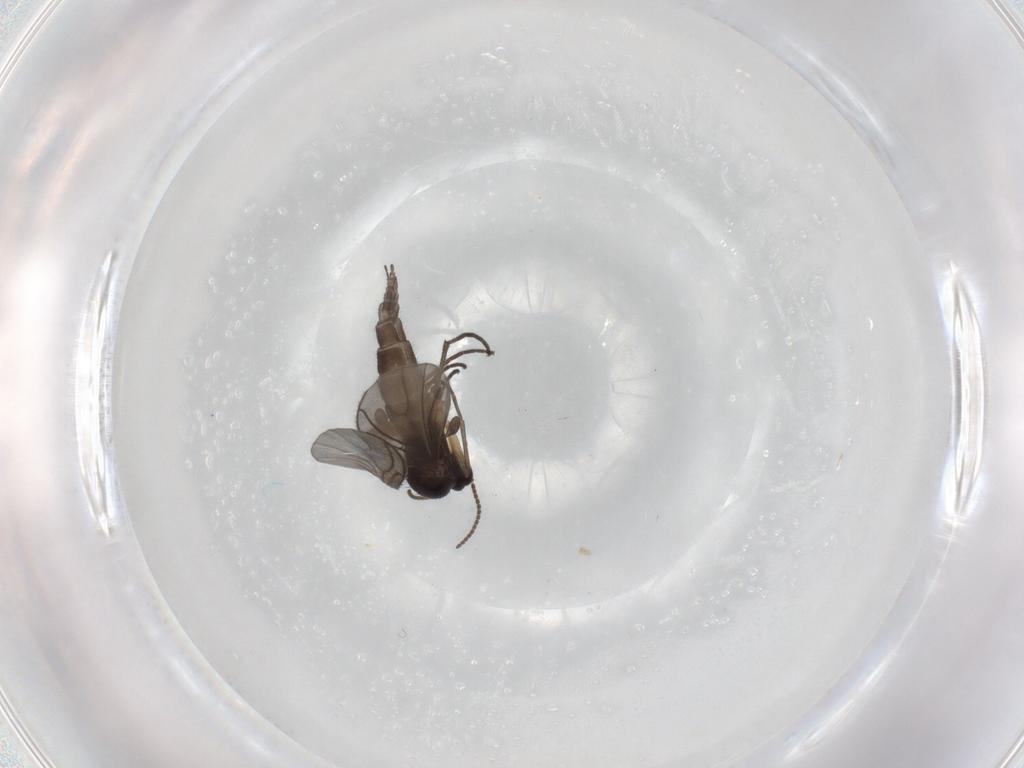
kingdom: Animalia
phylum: Arthropoda
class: Insecta
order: Diptera
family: Sciaridae
